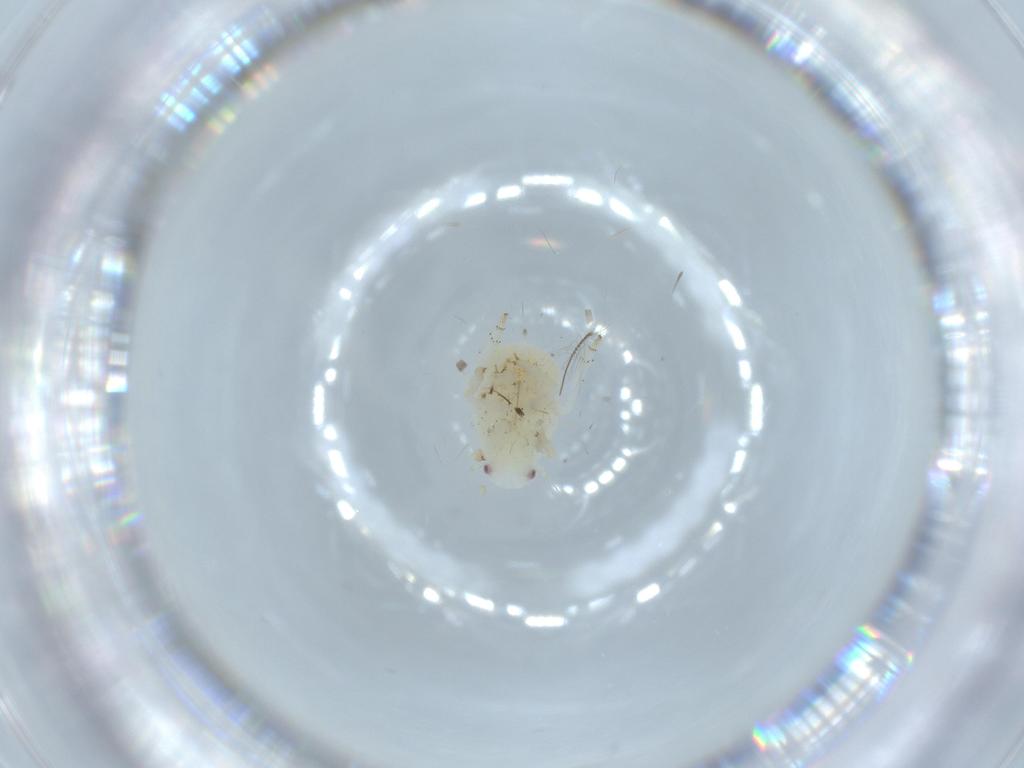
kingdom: Animalia
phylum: Arthropoda
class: Insecta
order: Hemiptera
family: Flatidae
